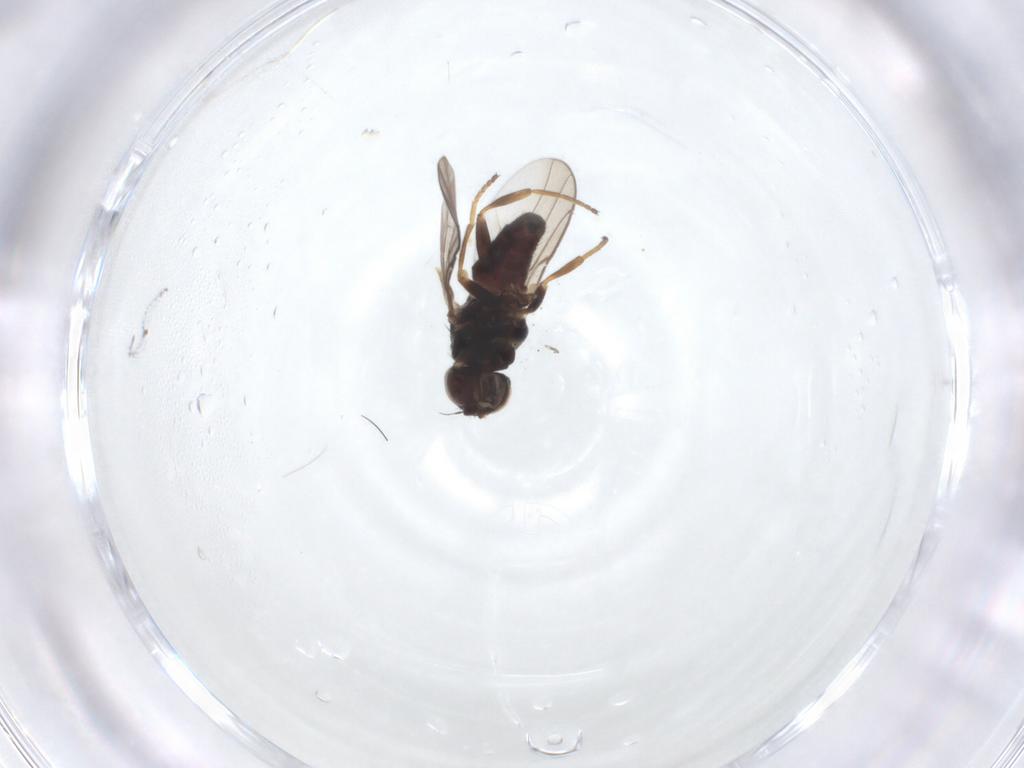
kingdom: Animalia
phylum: Arthropoda
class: Insecta
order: Diptera
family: Chloropidae
